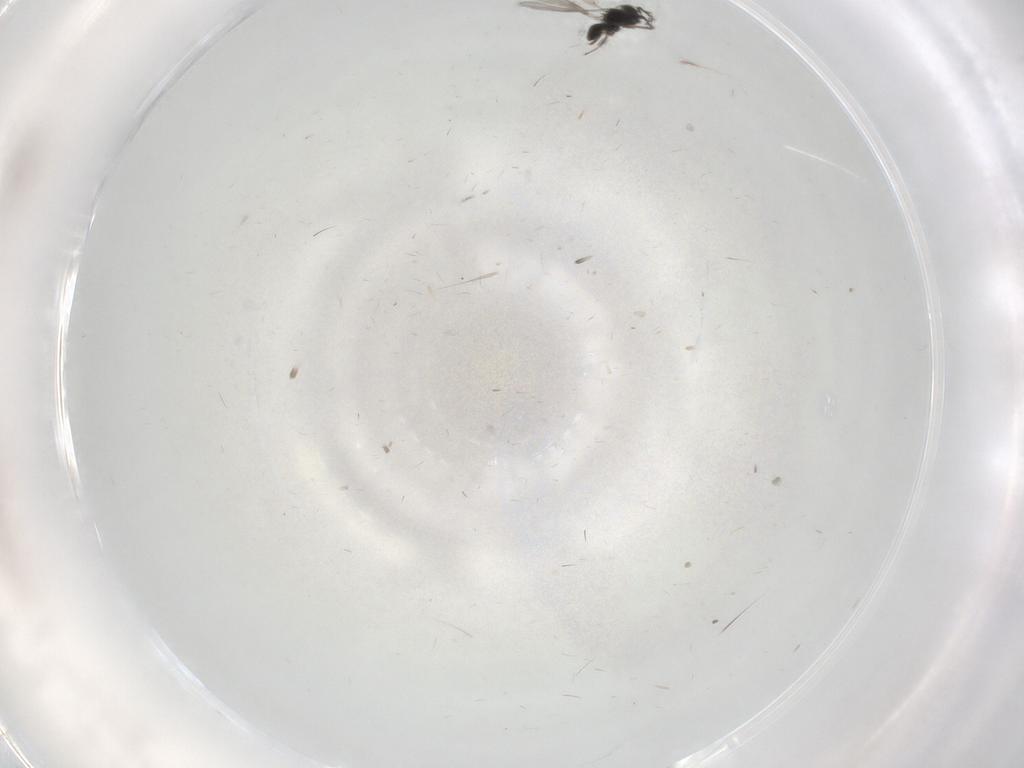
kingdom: Animalia
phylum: Arthropoda
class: Insecta
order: Hymenoptera
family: Scelionidae
